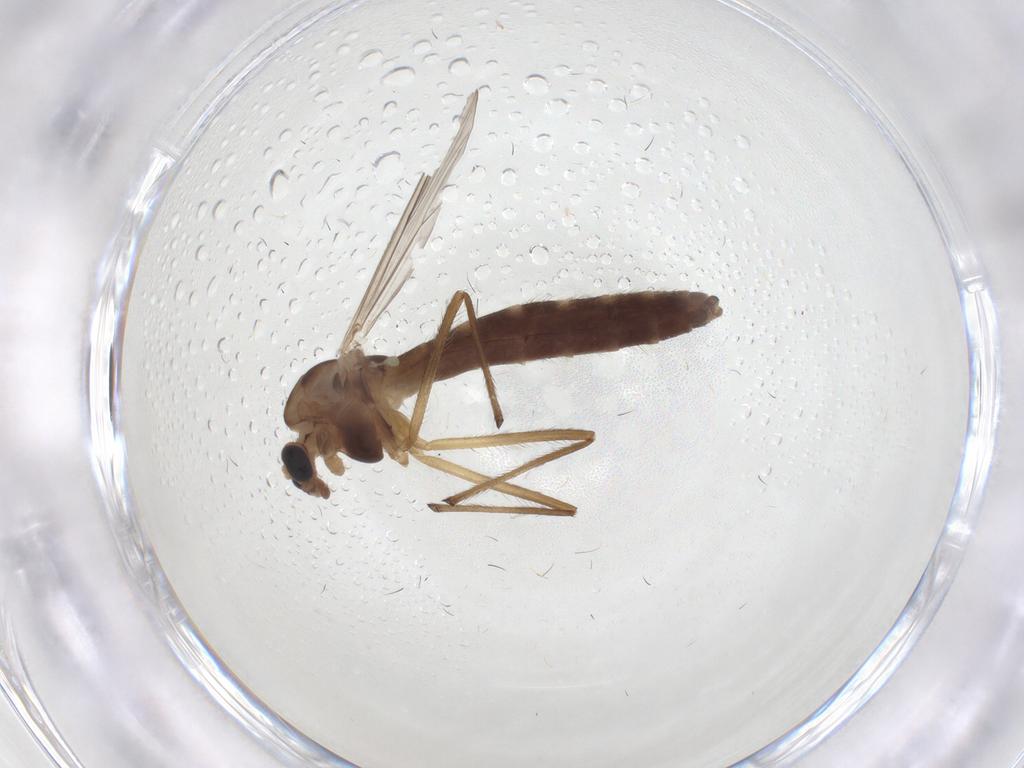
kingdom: Animalia
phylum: Arthropoda
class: Insecta
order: Diptera
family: Chironomidae
